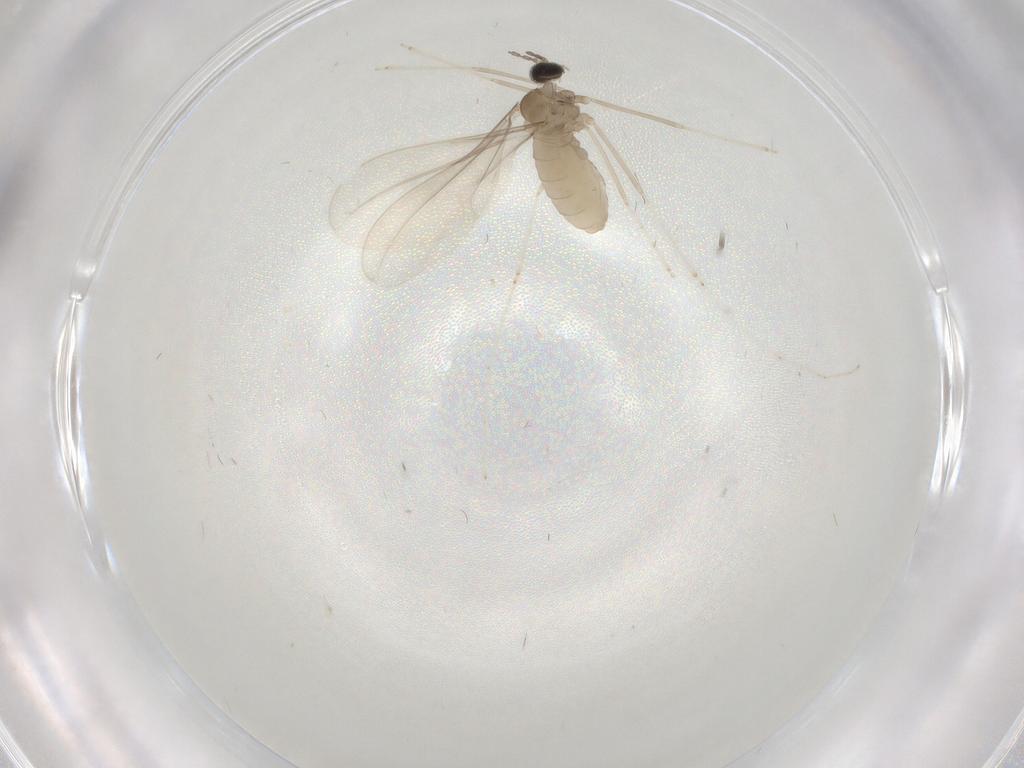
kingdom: Animalia
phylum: Arthropoda
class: Insecta
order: Diptera
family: Cecidomyiidae
